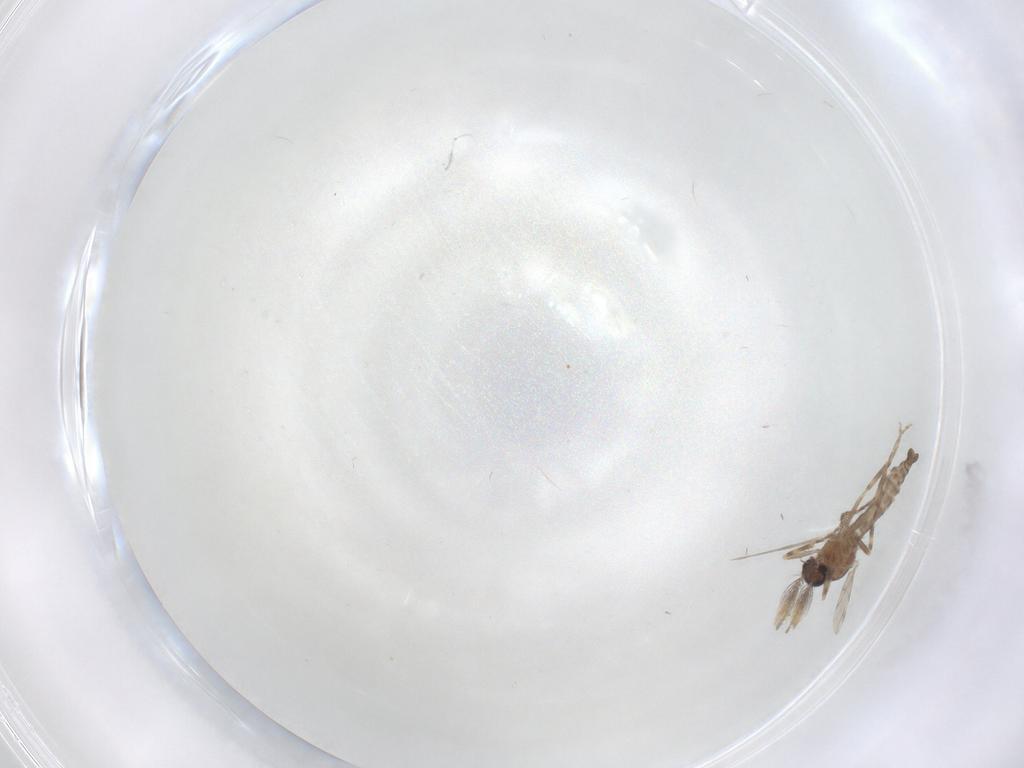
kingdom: Animalia
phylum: Arthropoda
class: Insecta
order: Diptera
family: Ceratopogonidae
